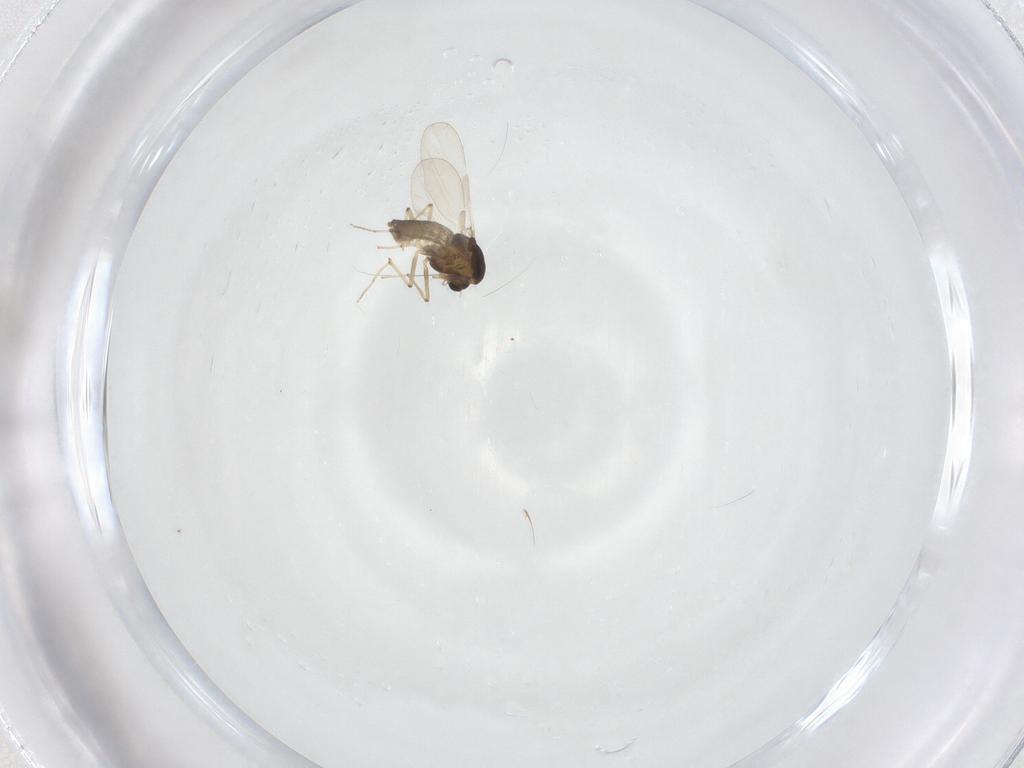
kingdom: Animalia
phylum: Arthropoda
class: Insecta
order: Diptera
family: Chironomidae
